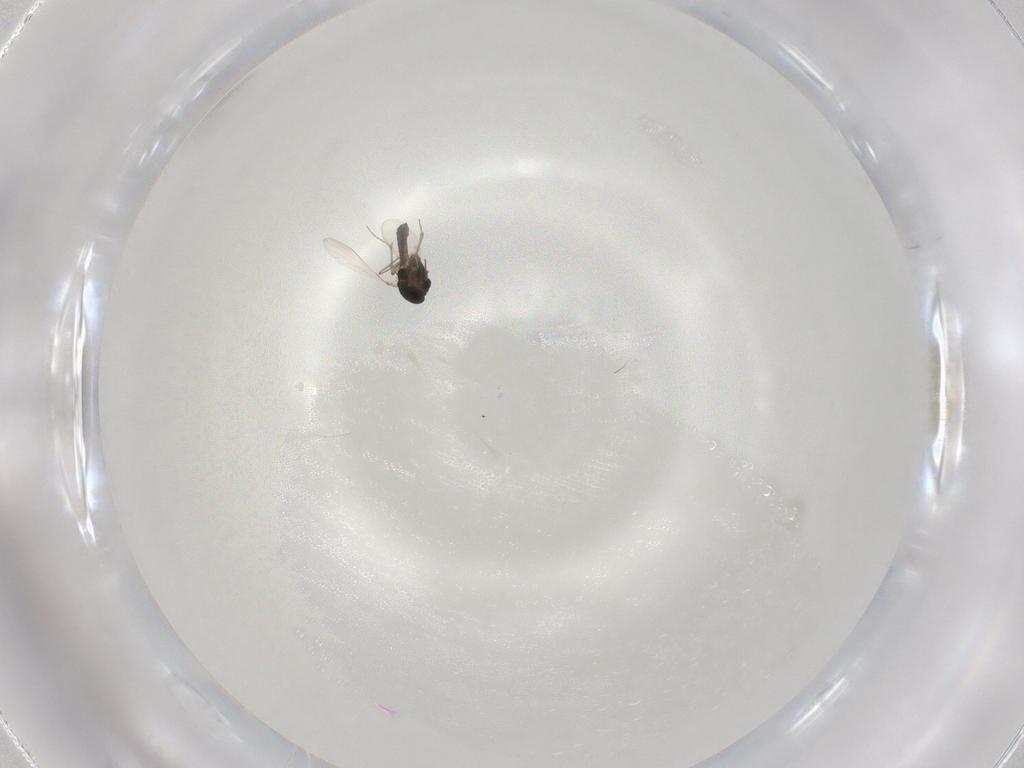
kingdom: Animalia
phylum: Arthropoda
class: Insecta
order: Diptera
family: Chironomidae
